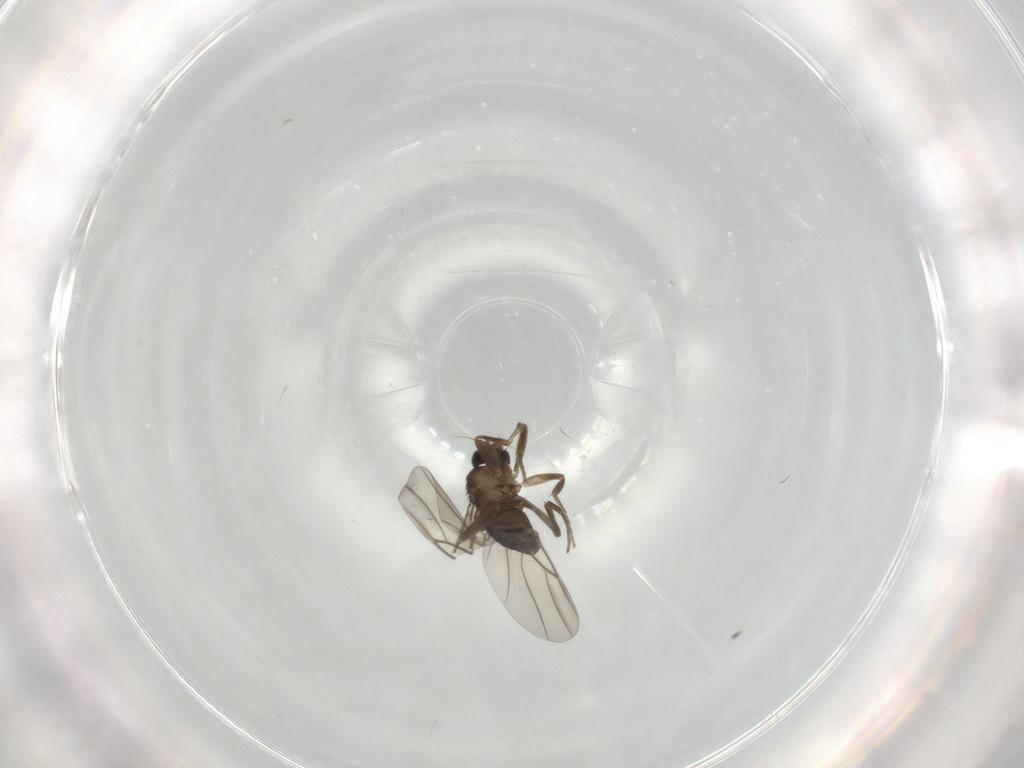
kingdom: Animalia
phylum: Arthropoda
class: Insecta
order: Diptera
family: Phoridae
